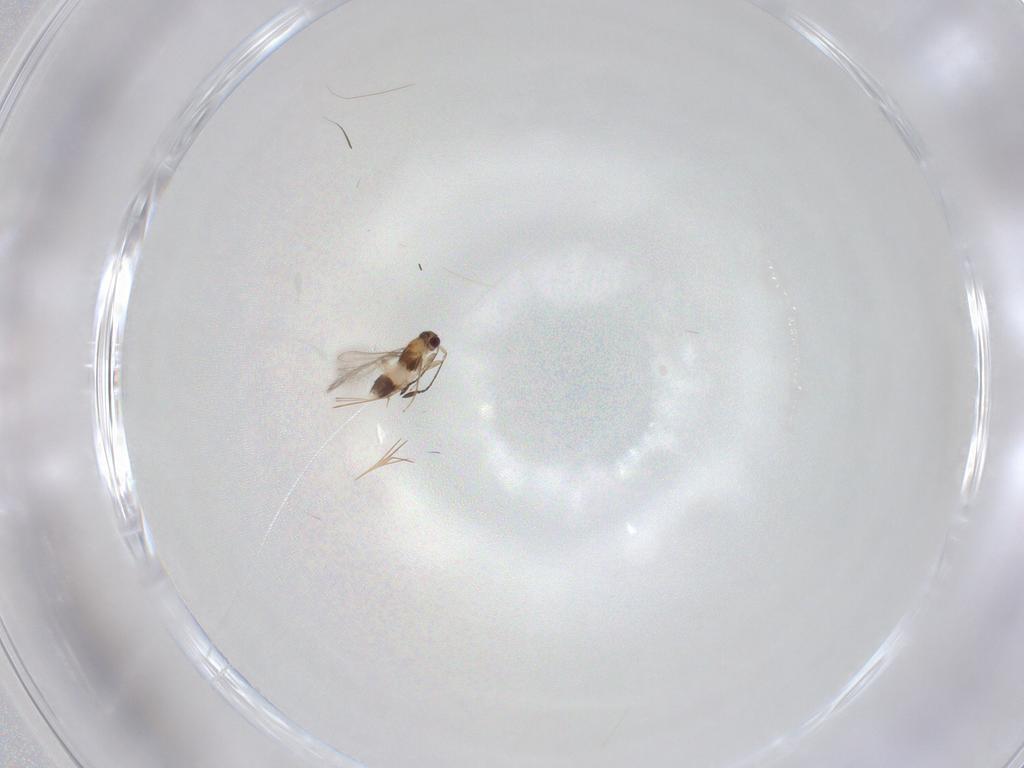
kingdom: Animalia
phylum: Arthropoda
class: Insecta
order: Hymenoptera
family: Mymaridae
